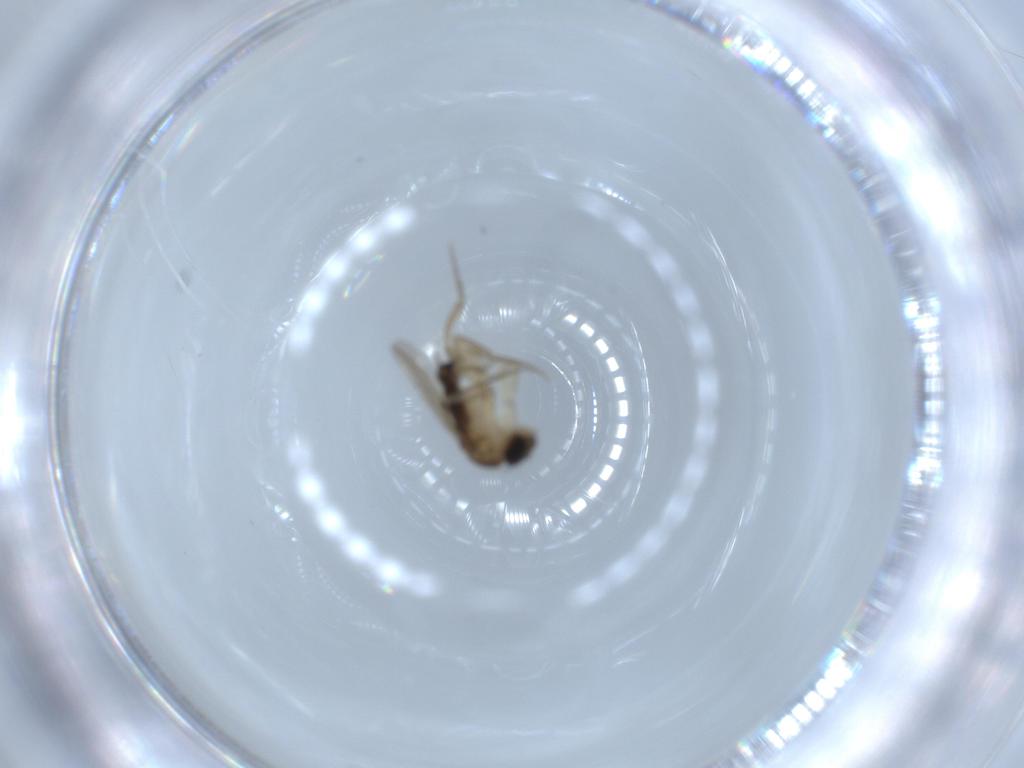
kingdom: Animalia
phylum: Arthropoda
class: Insecta
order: Diptera
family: Phoridae
